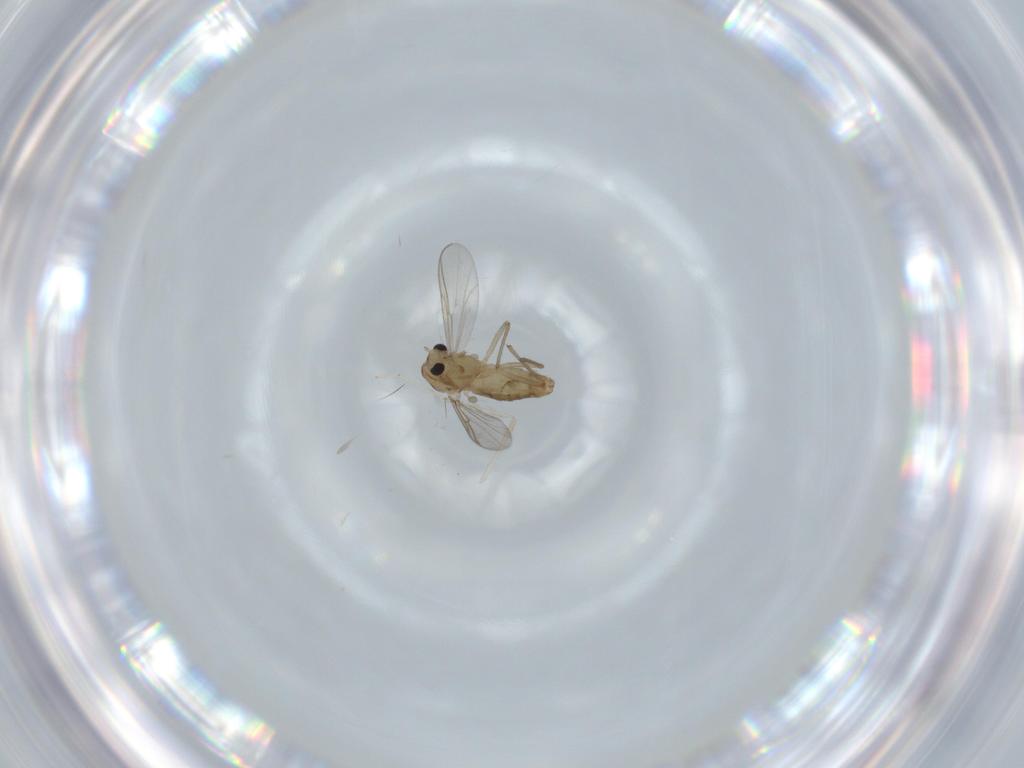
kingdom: Animalia
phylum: Arthropoda
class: Insecta
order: Diptera
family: Chironomidae
